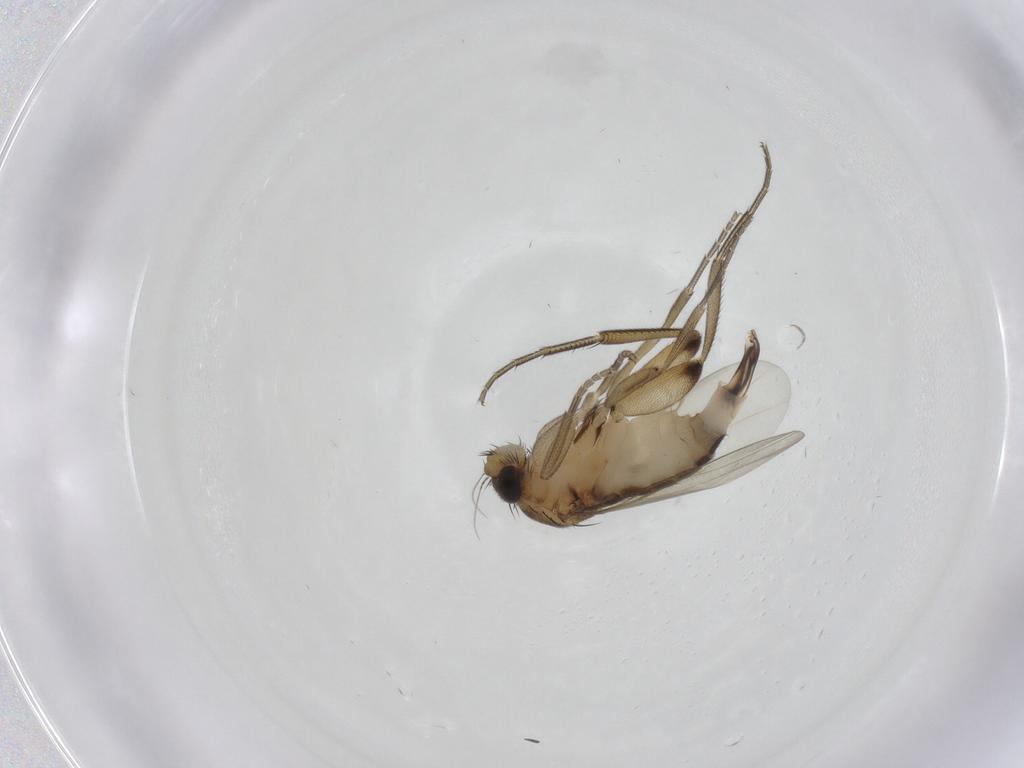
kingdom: Animalia
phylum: Arthropoda
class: Insecta
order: Diptera
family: Phoridae
